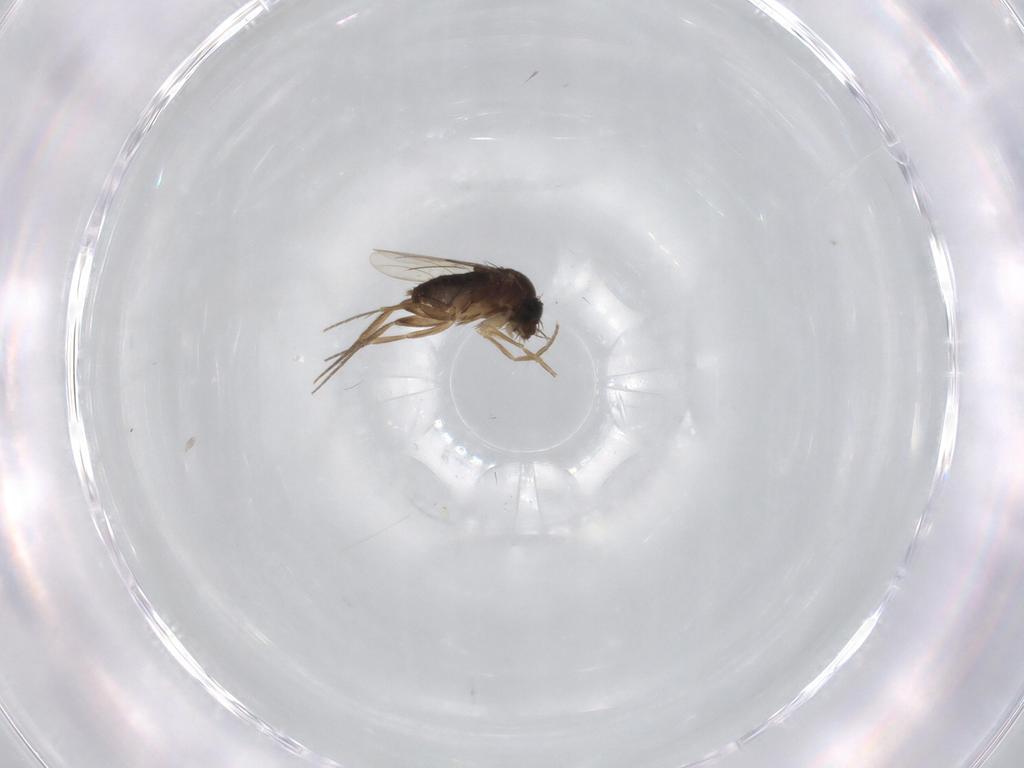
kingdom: Animalia
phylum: Arthropoda
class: Insecta
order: Diptera
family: Phoridae
